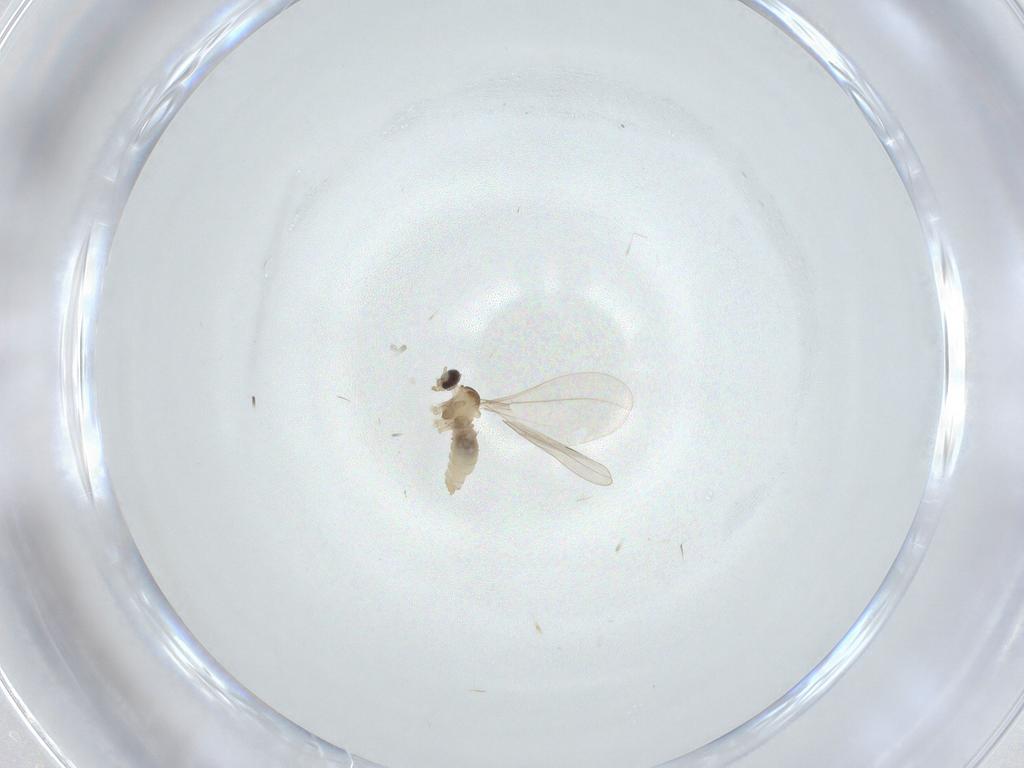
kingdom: Animalia
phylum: Arthropoda
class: Insecta
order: Diptera
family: Cecidomyiidae
